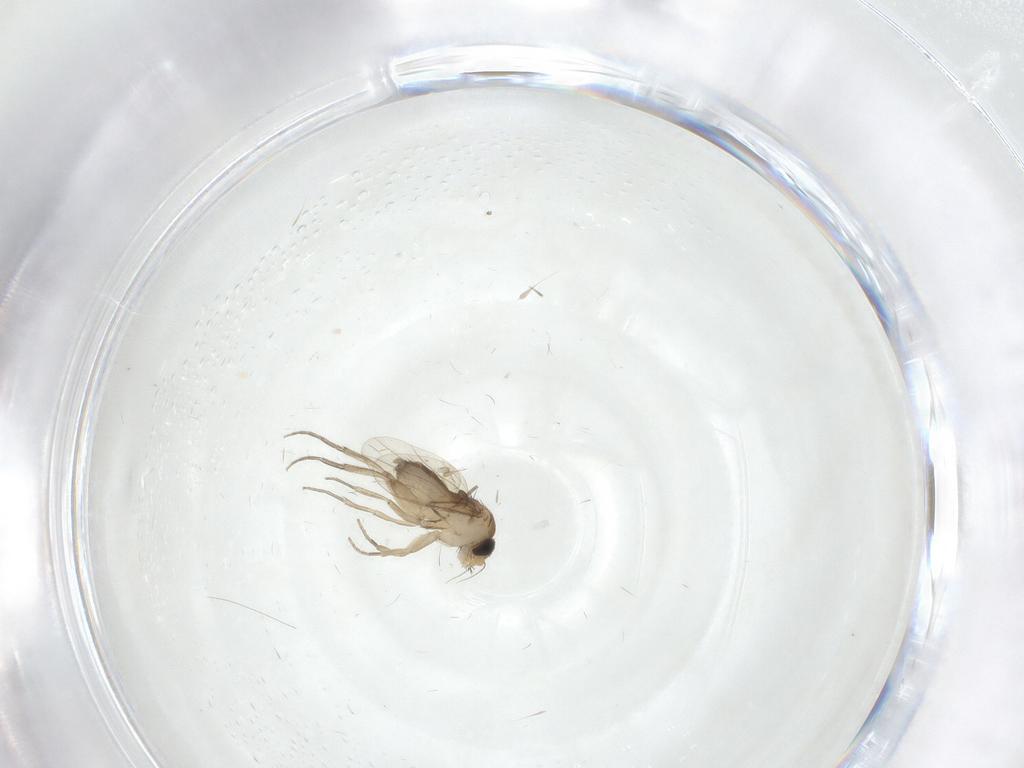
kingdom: Animalia
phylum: Arthropoda
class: Insecta
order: Diptera
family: Phoridae
